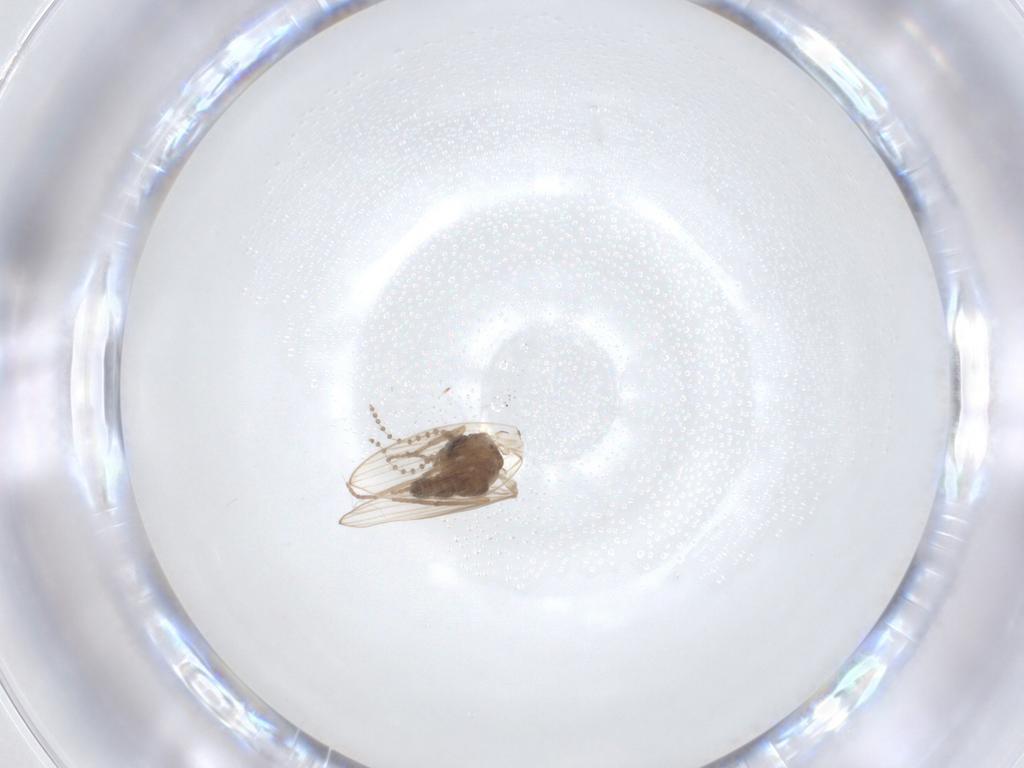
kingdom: Animalia
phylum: Arthropoda
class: Insecta
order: Diptera
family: Psychodidae
